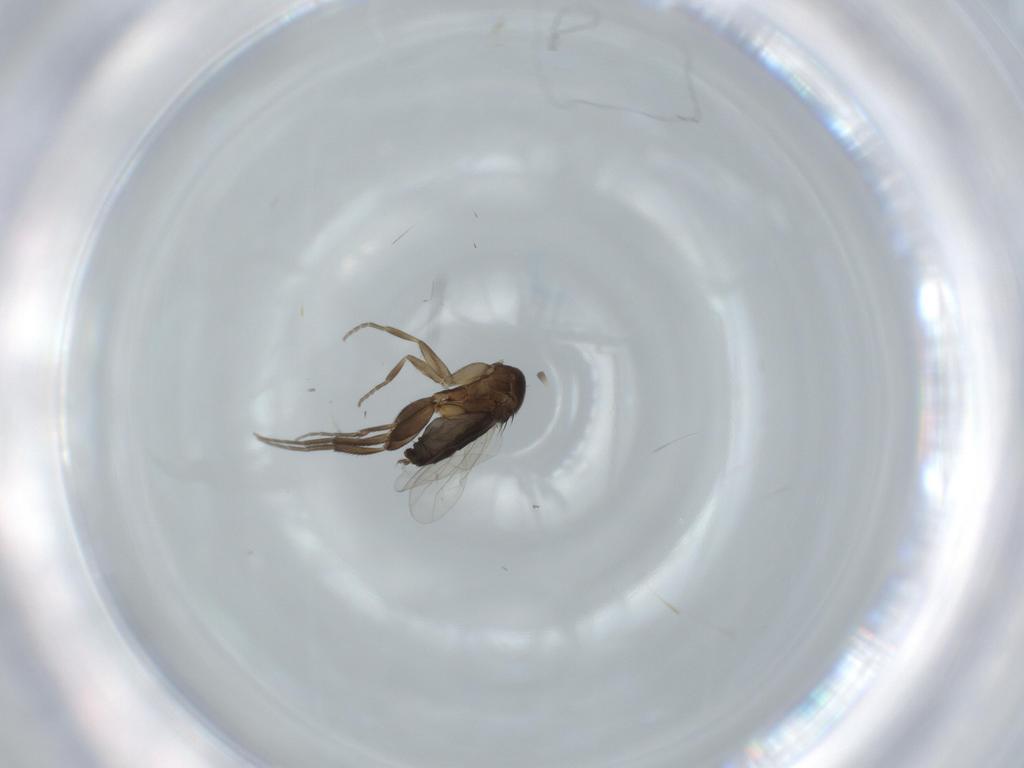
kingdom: Animalia
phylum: Arthropoda
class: Insecta
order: Diptera
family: Phoridae
